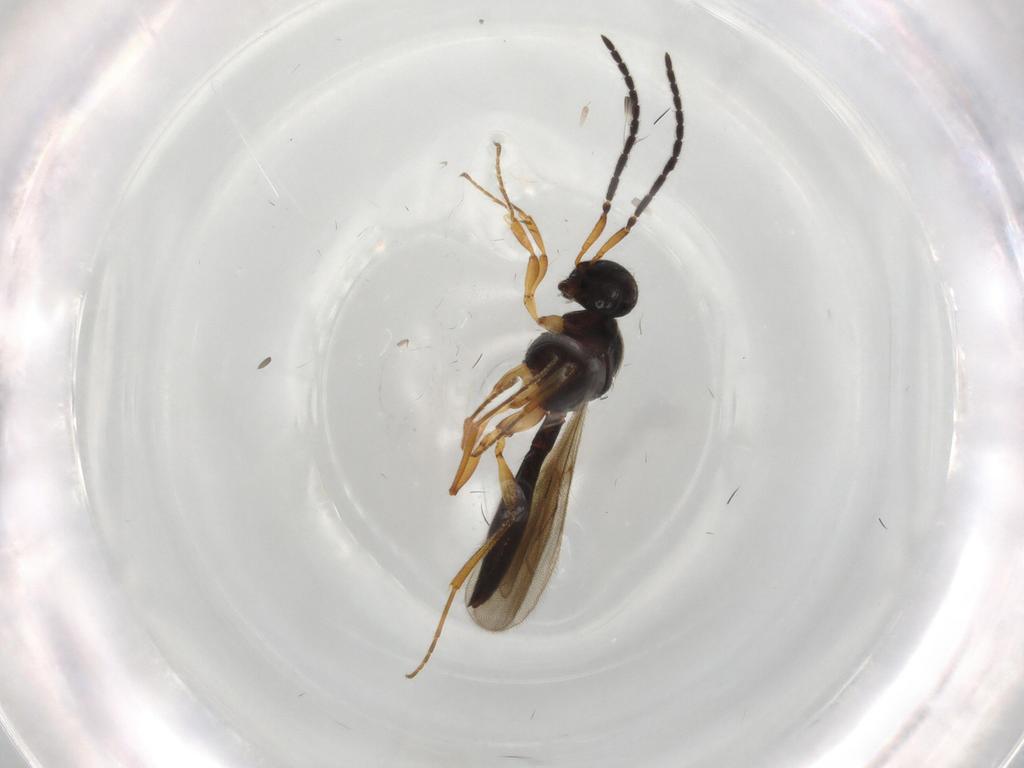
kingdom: Animalia
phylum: Arthropoda
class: Insecta
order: Hymenoptera
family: Scelionidae
